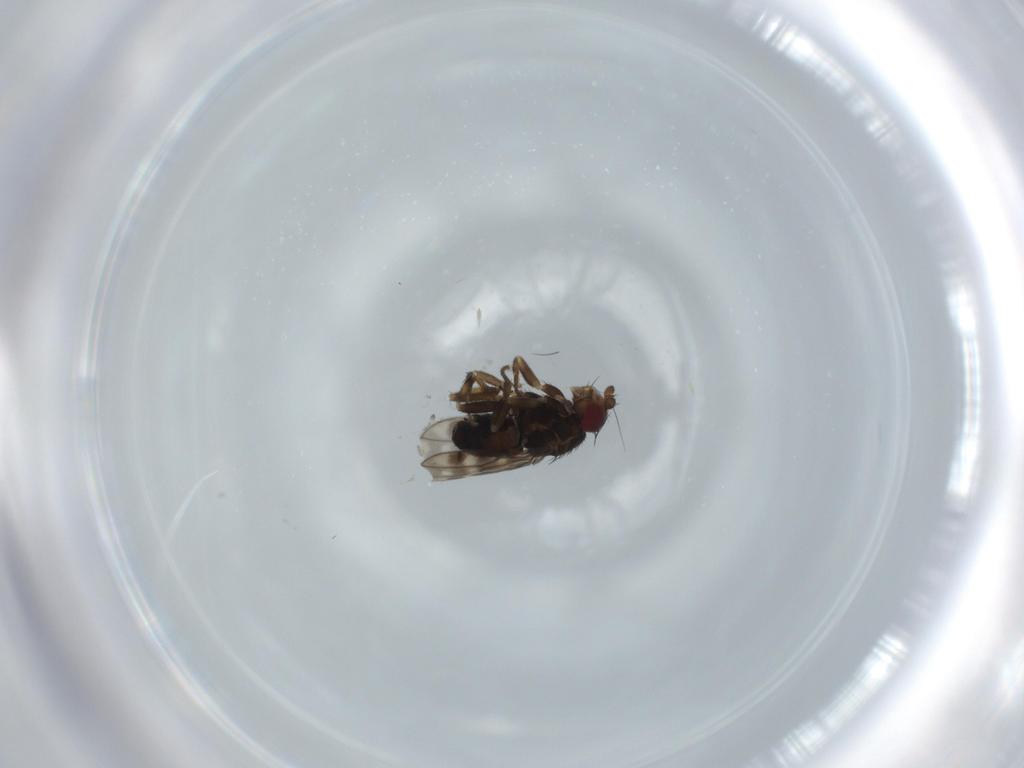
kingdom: Animalia
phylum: Arthropoda
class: Insecta
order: Diptera
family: Sphaeroceridae
